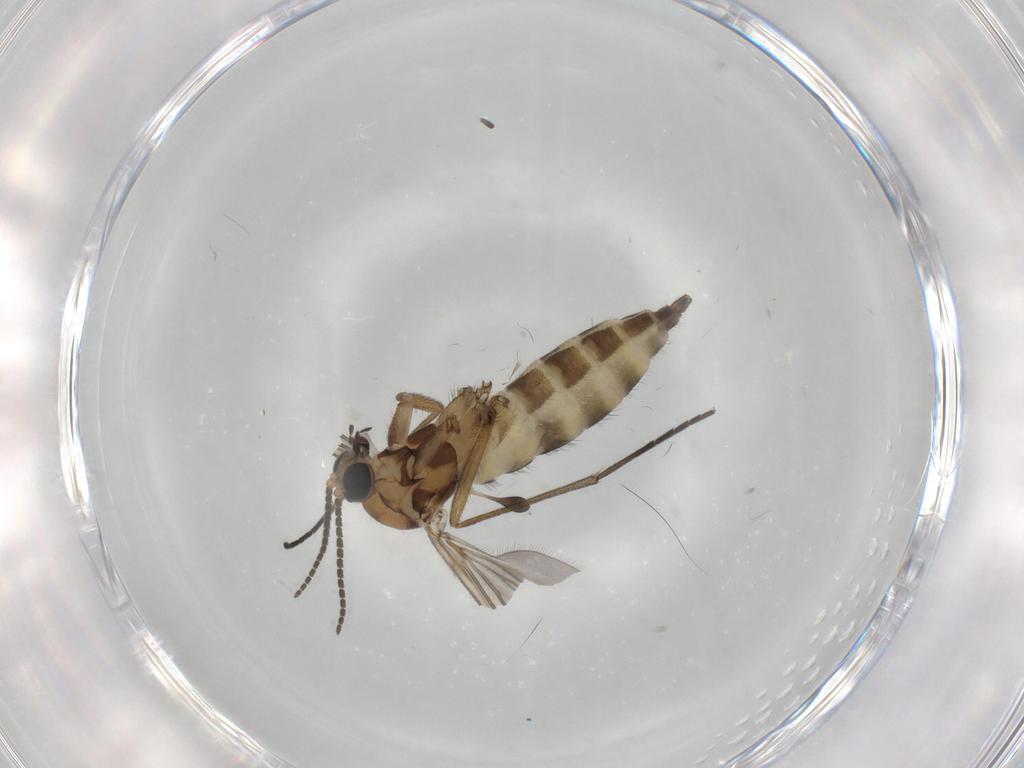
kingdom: Animalia
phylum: Arthropoda
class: Insecta
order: Diptera
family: Sciaridae
